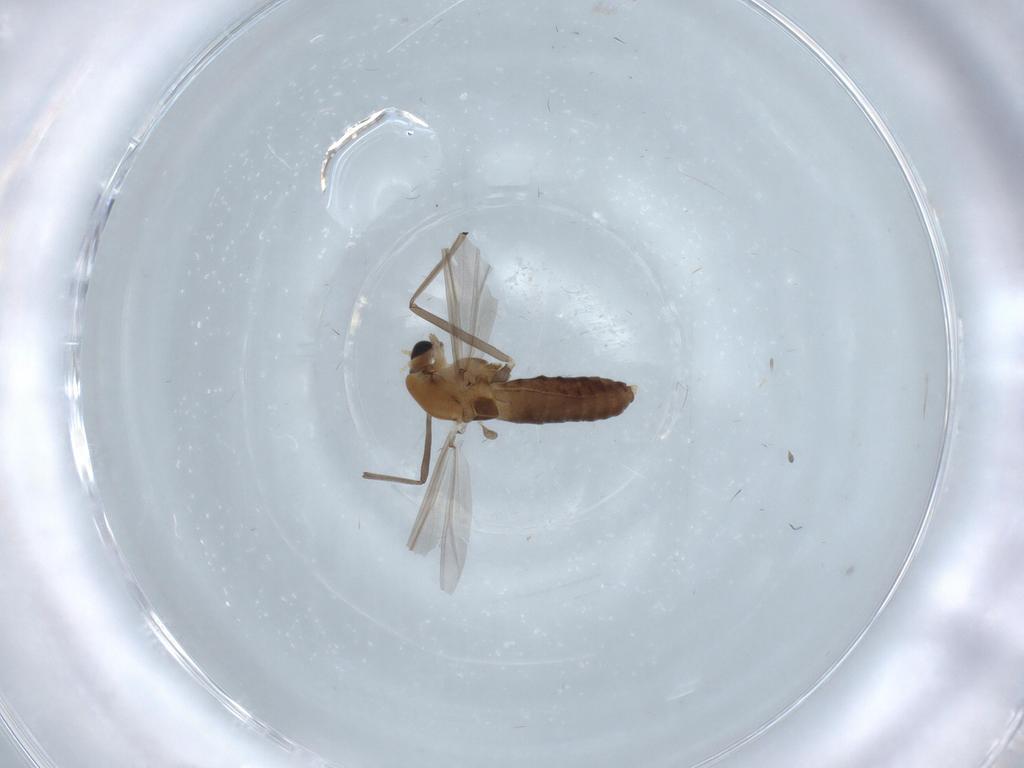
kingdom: Animalia
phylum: Arthropoda
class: Insecta
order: Diptera
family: Chironomidae
